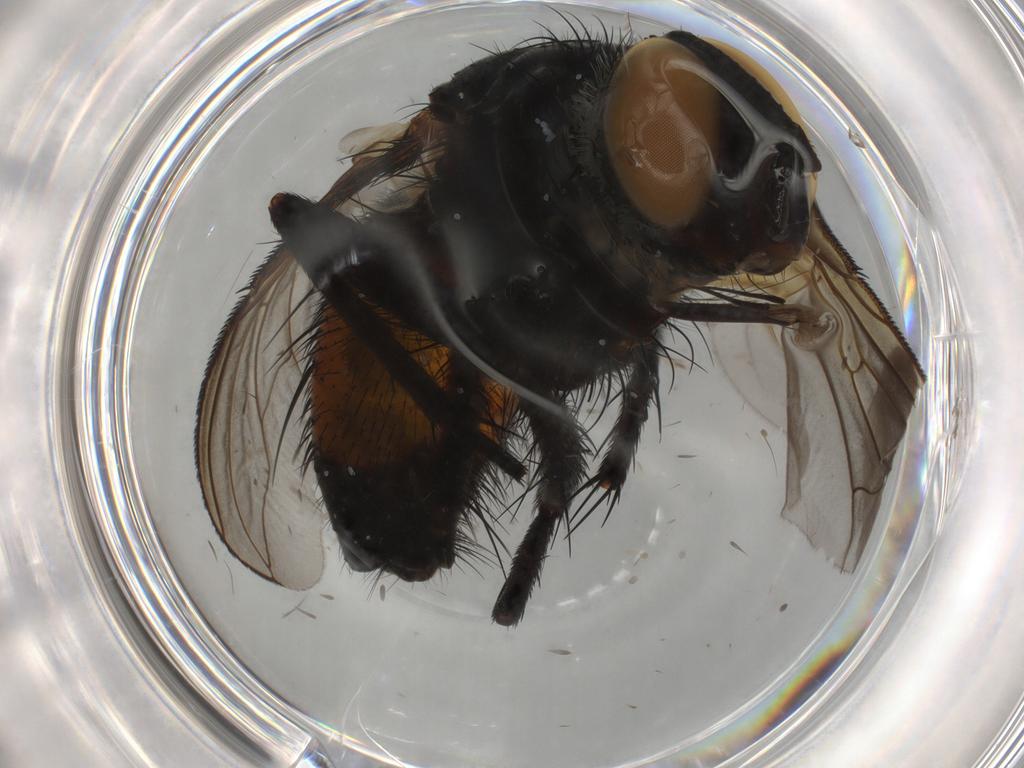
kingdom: Animalia
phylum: Arthropoda
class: Insecta
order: Diptera
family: Tachinidae
